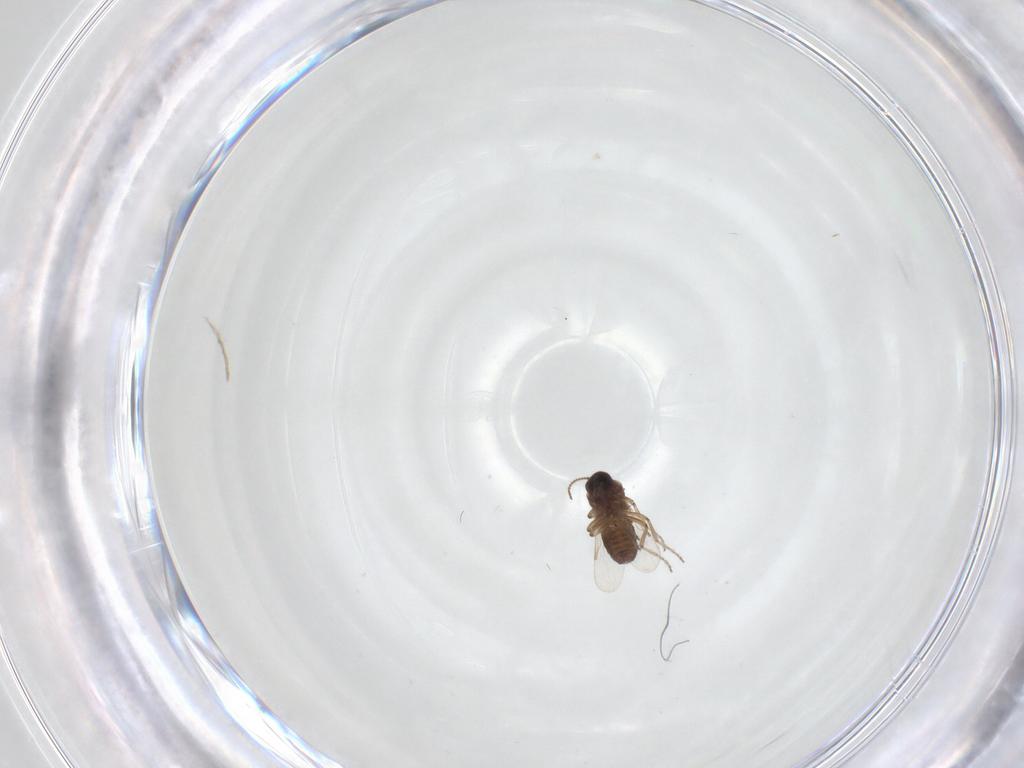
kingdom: Animalia
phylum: Arthropoda
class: Insecta
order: Diptera
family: Ceratopogonidae
